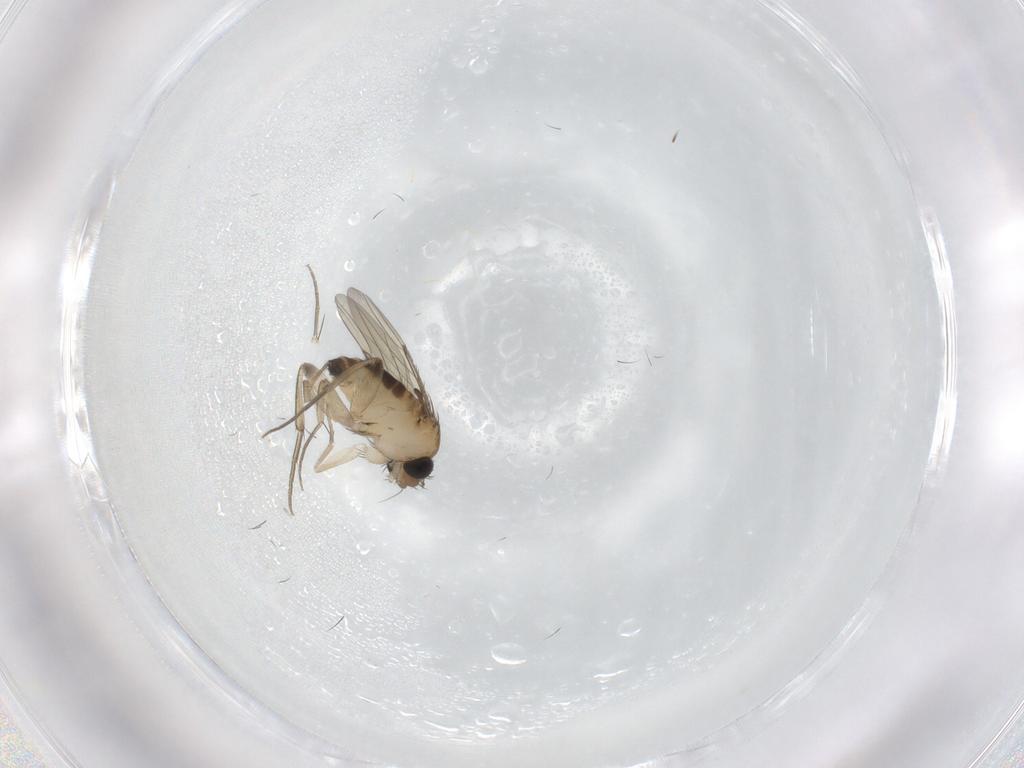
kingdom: Animalia
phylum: Arthropoda
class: Insecta
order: Diptera
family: Phoridae
